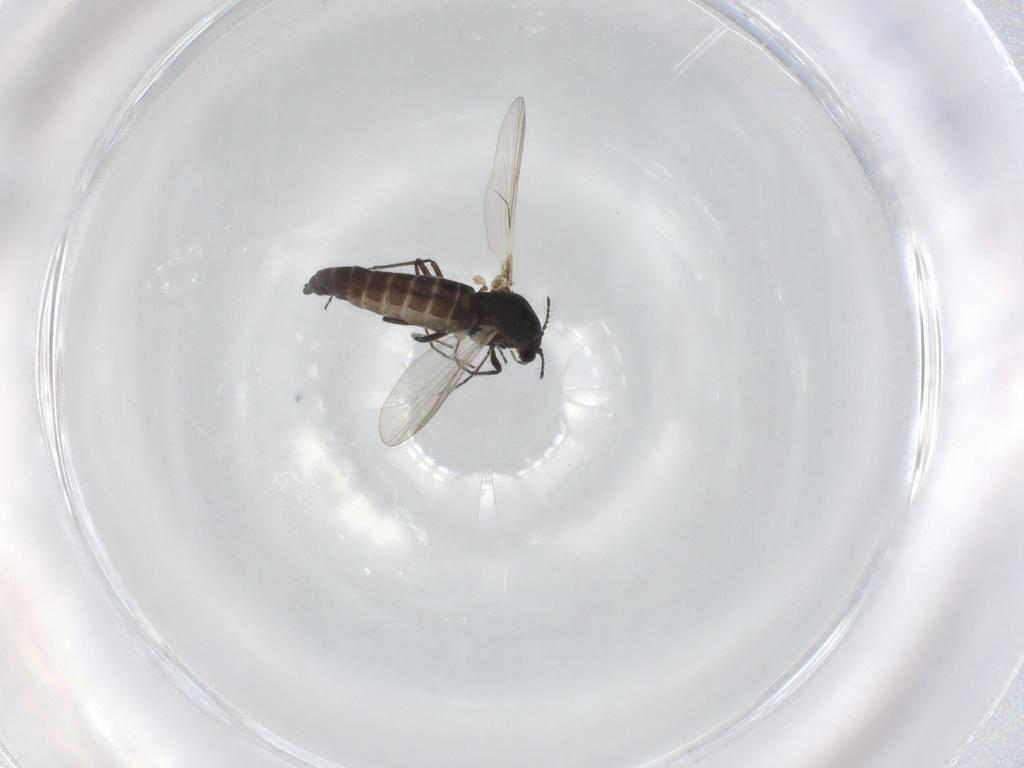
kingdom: Animalia
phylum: Arthropoda
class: Insecta
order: Diptera
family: Chironomidae
